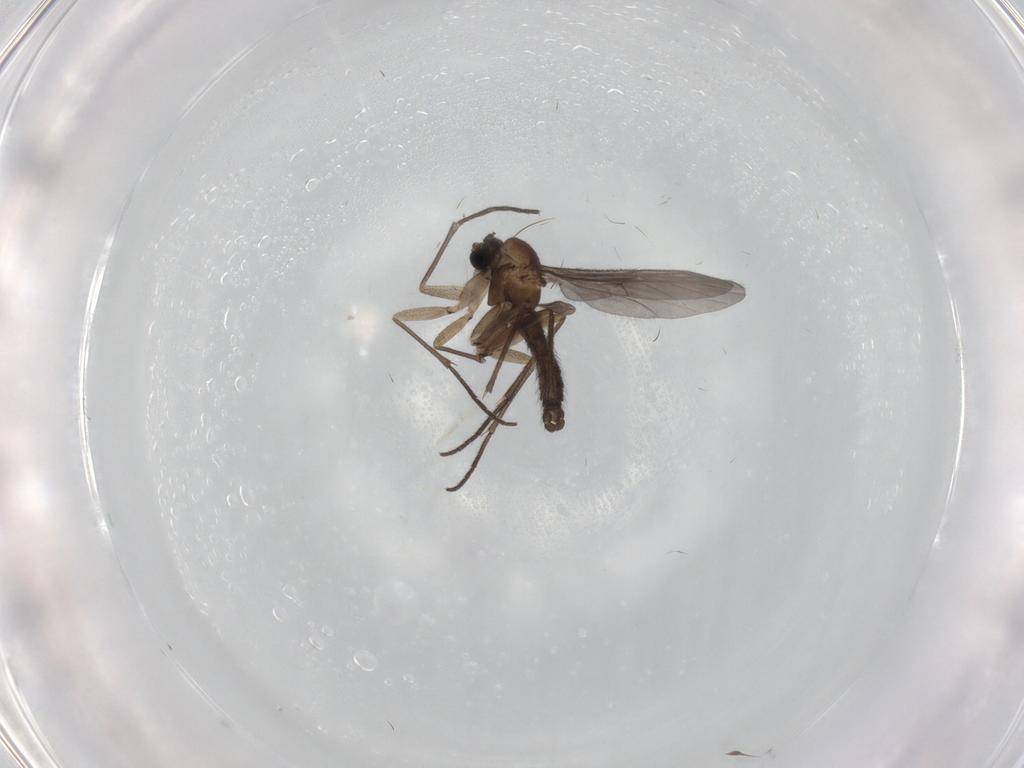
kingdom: Animalia
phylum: Arthropoda
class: Insecta
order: Diptera
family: Sciaridae
